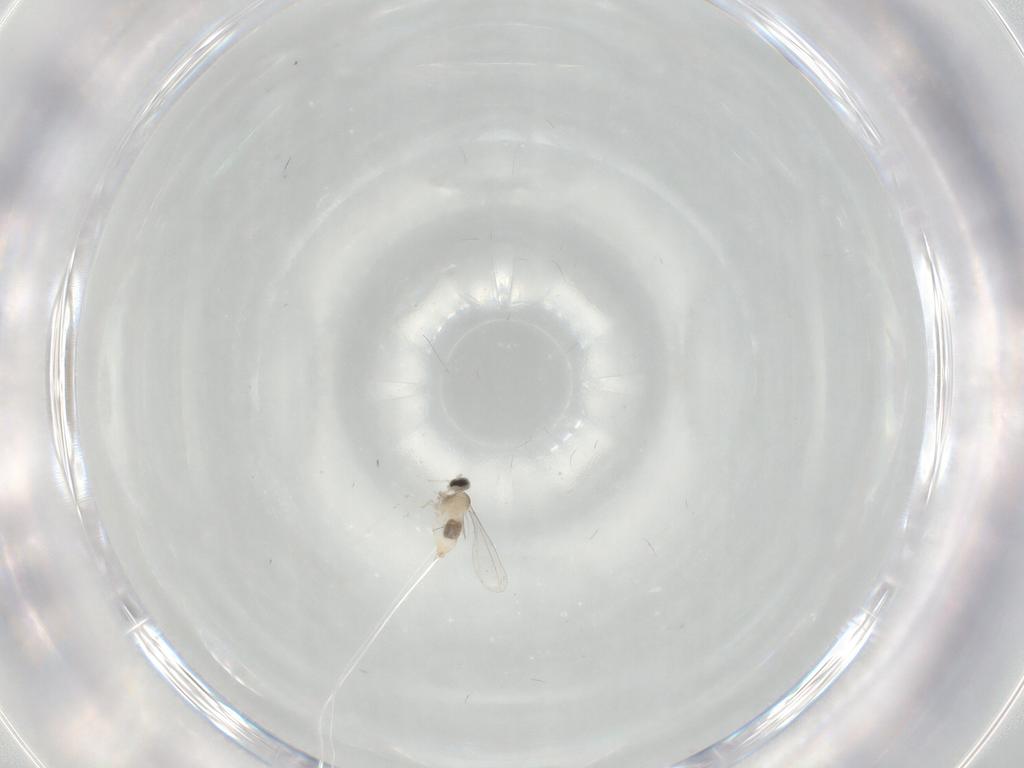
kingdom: Animalia
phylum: Arthropoda
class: Insecta
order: Diptera
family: Cecidomyiidae
